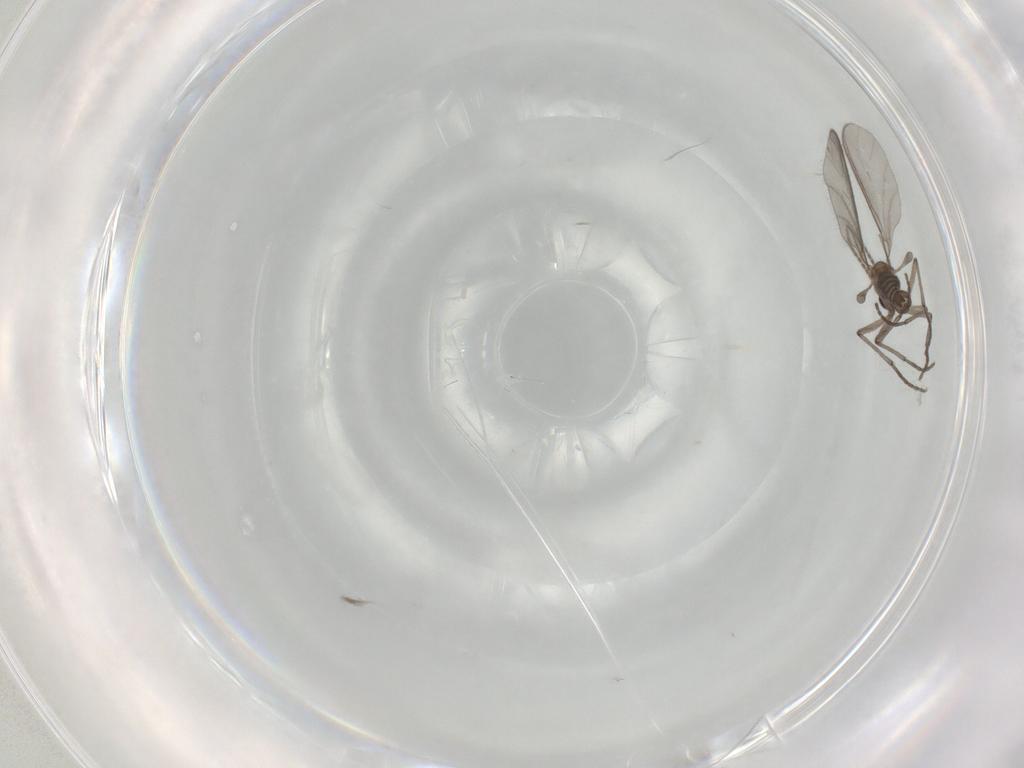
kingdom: Animalia
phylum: Arthropoda
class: Insecta
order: Diptera
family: Sciaridae
